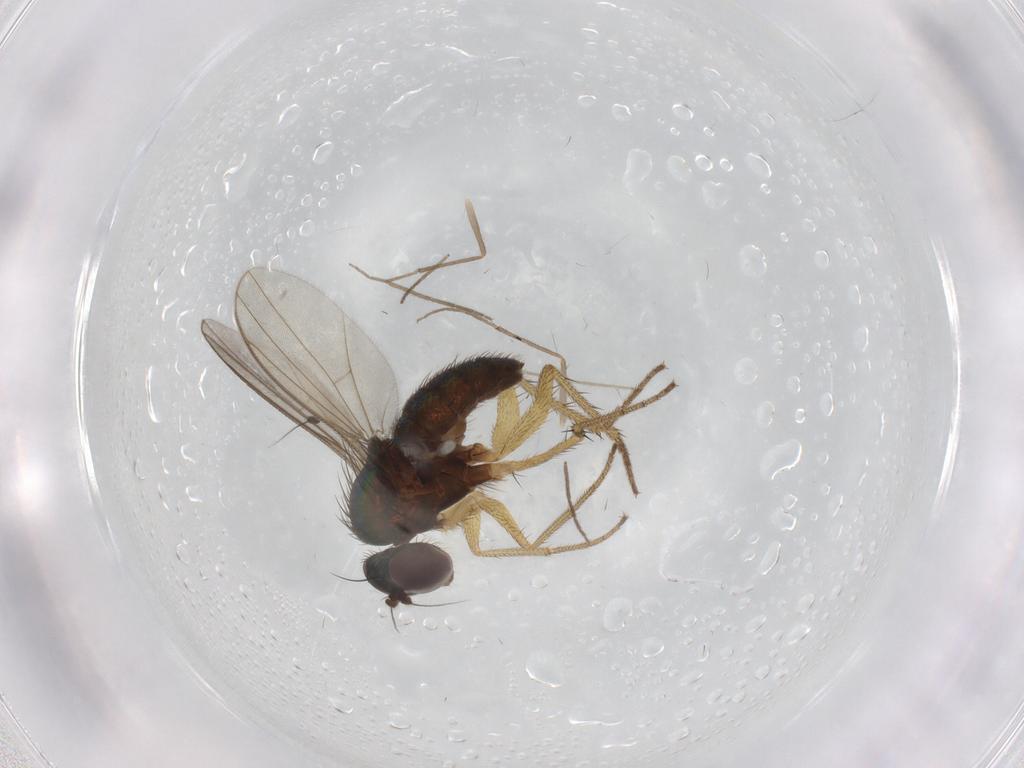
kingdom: Animalia
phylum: Arthropoda
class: Insecta
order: Diptera
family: Chironomidae
